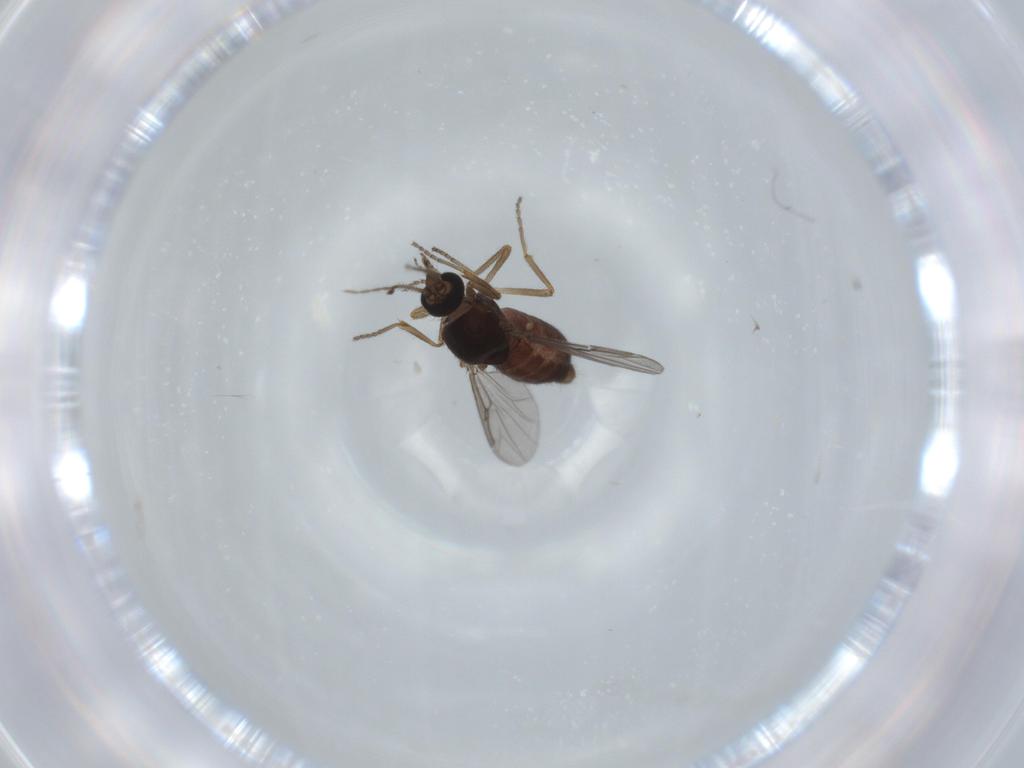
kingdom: Animalia
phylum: Arthropoda
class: Insecta
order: Diptera
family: Ceratopogonidae
